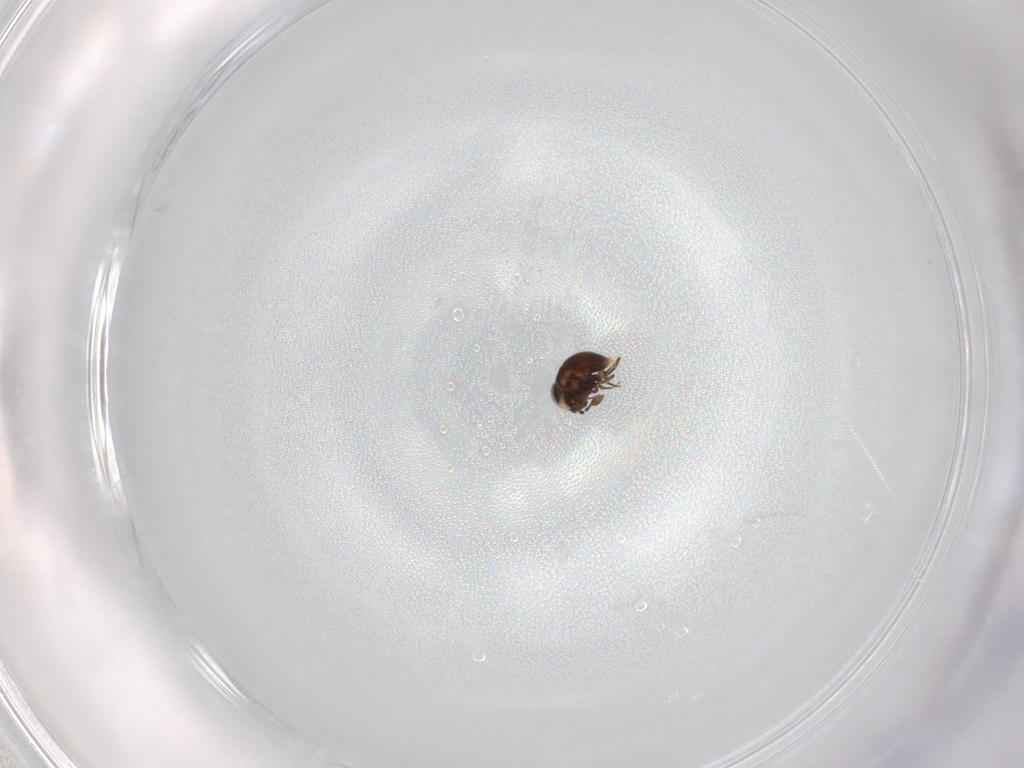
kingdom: Animalia
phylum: Arthropoda
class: Insecta
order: Hymenoptera
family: Scelionidae
